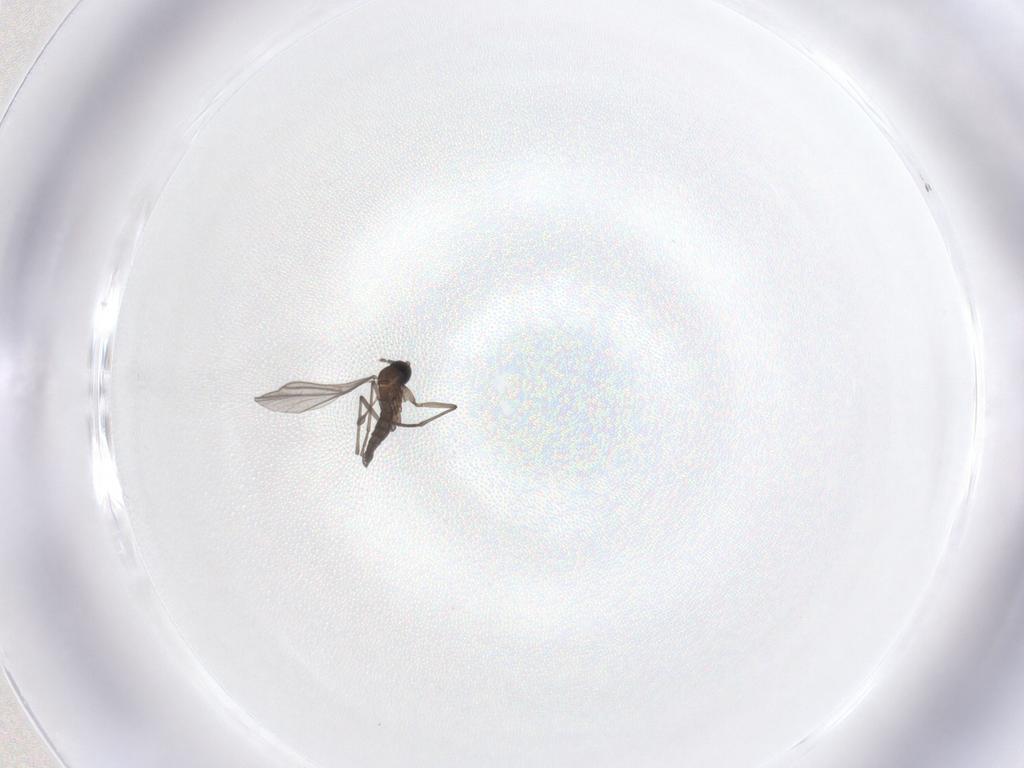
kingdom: Animalia
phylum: Arthropoda
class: Insecta
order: Diptera
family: Sciaridae
